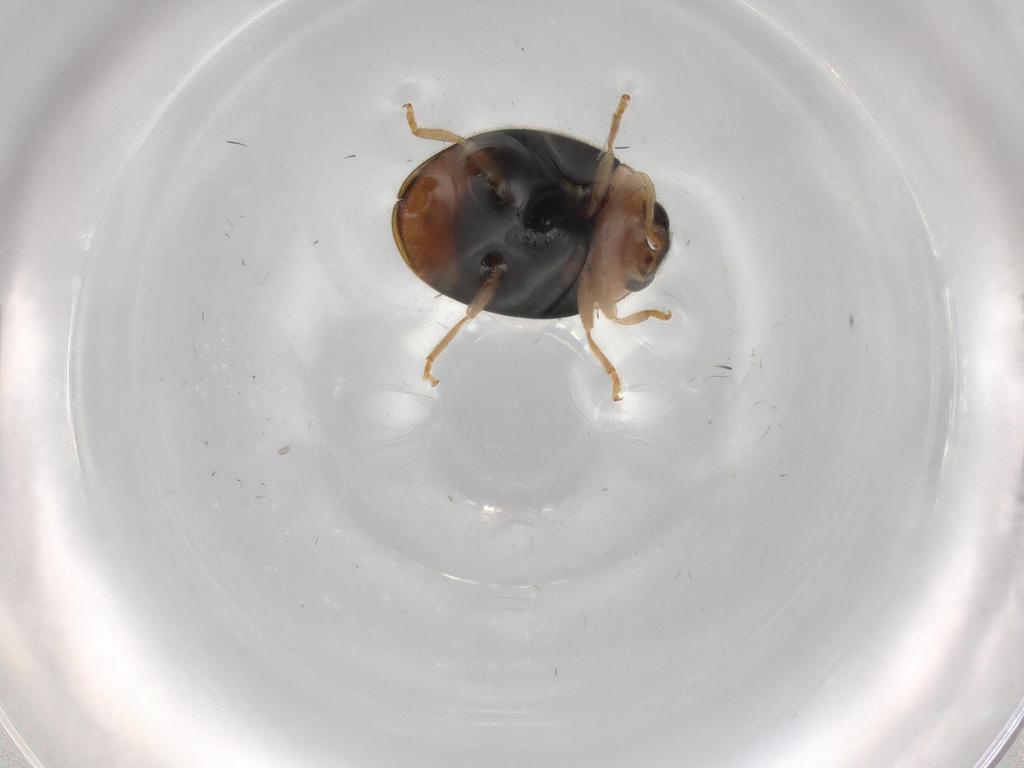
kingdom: Animalia
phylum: Arthropoda
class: Insecta
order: Coleoptera
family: Coccinellidae
